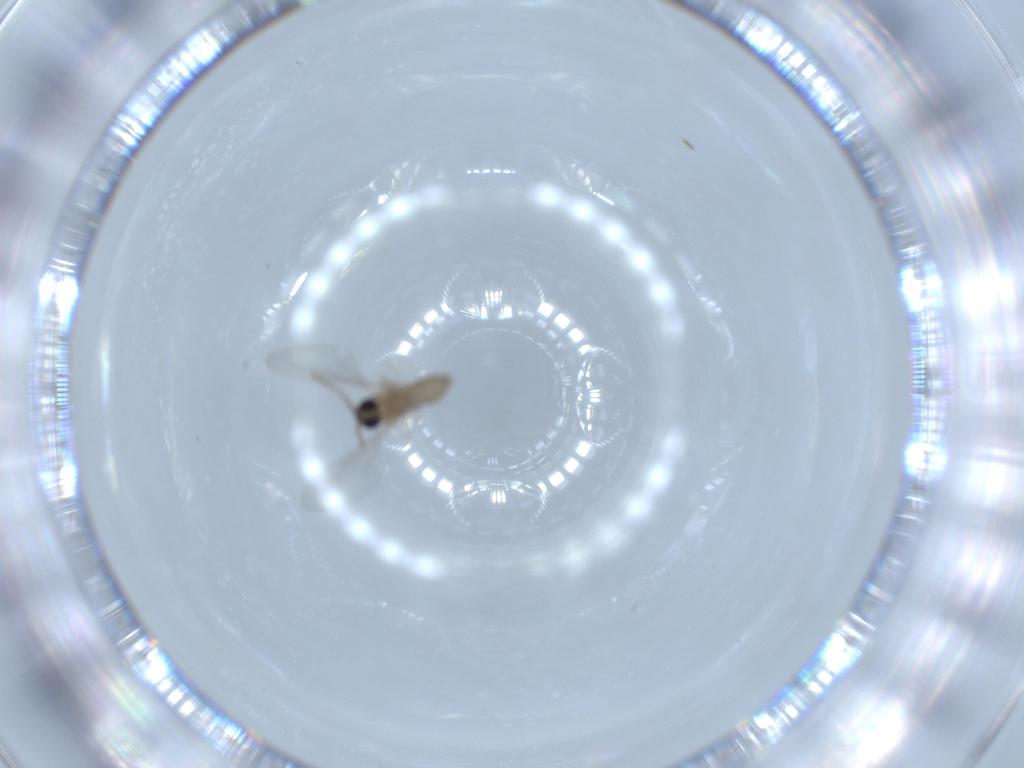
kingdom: Animalia
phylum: Arthropoda
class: Insecta
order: Diptera
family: Cecidomyiidae
